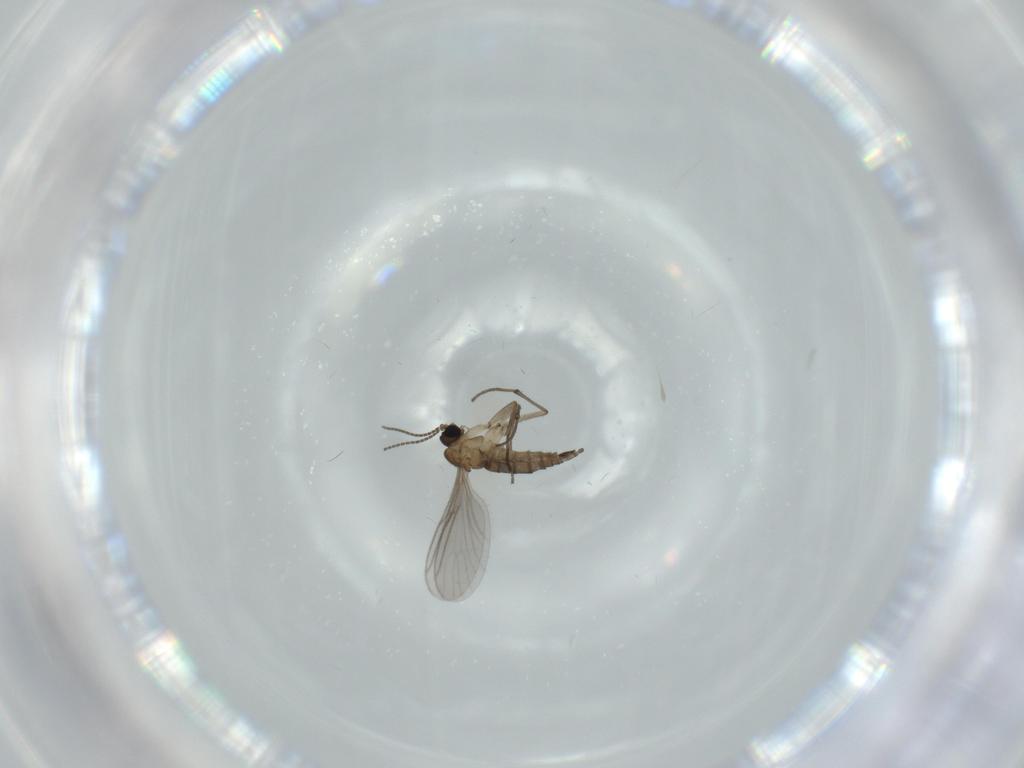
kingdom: Animalia
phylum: Arthropoda
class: Insecta
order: Diptera
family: Sciaridae
